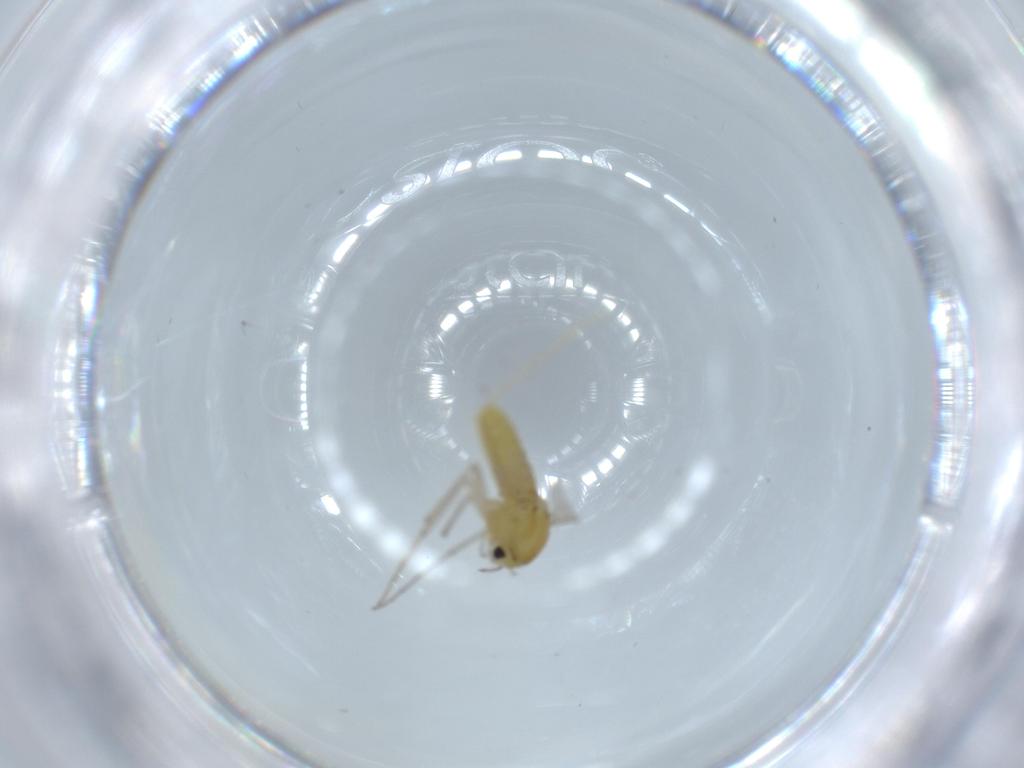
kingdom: Animalia
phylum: Arthropoda
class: Insecta
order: Diptera
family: Chironomidae
